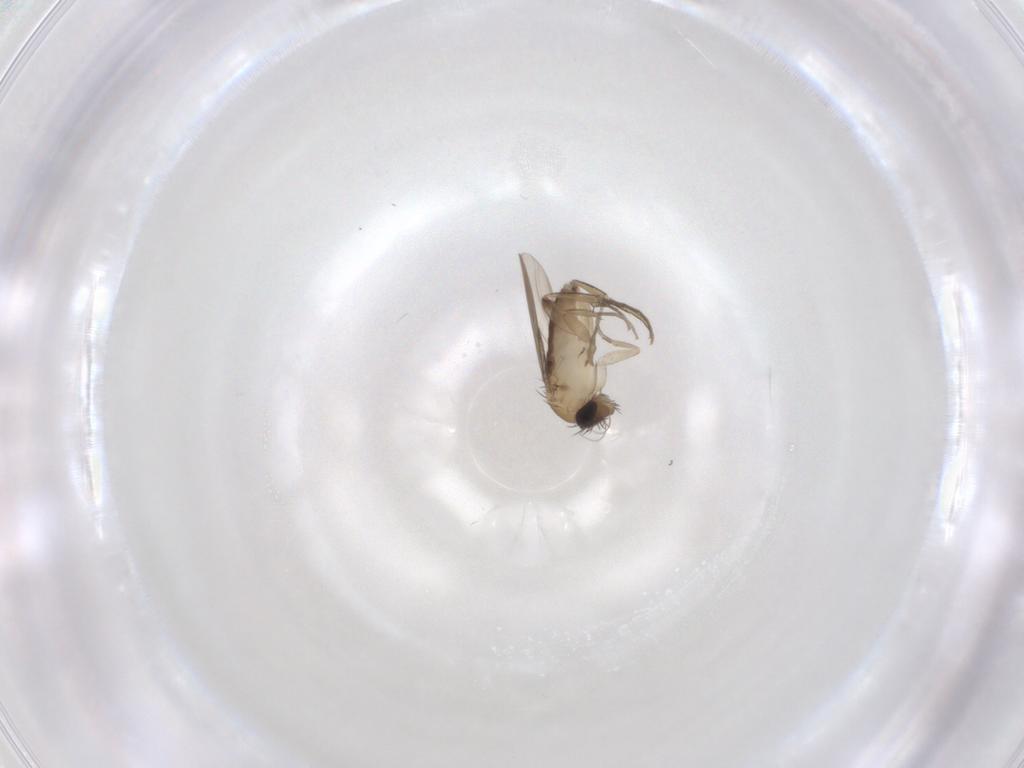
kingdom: Animalia
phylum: Arthropoda
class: Insecta
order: Diptera
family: Phoridae
